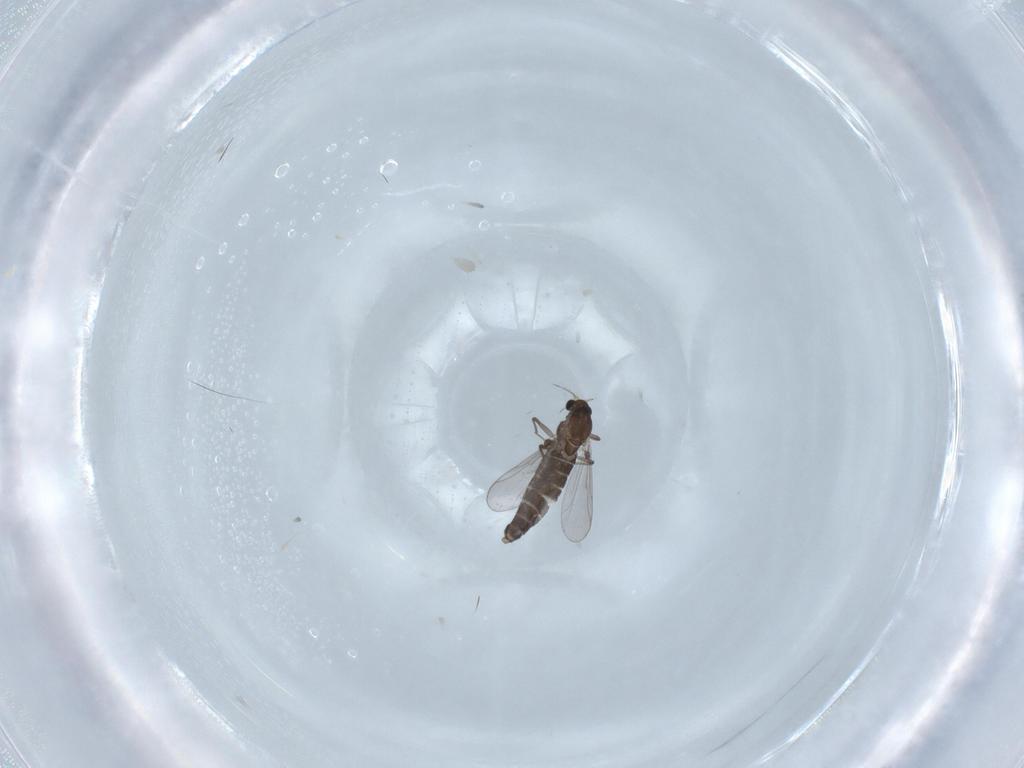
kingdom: Animalia
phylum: Arthropoda
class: Insecta
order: Diptera
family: Chironomidae
